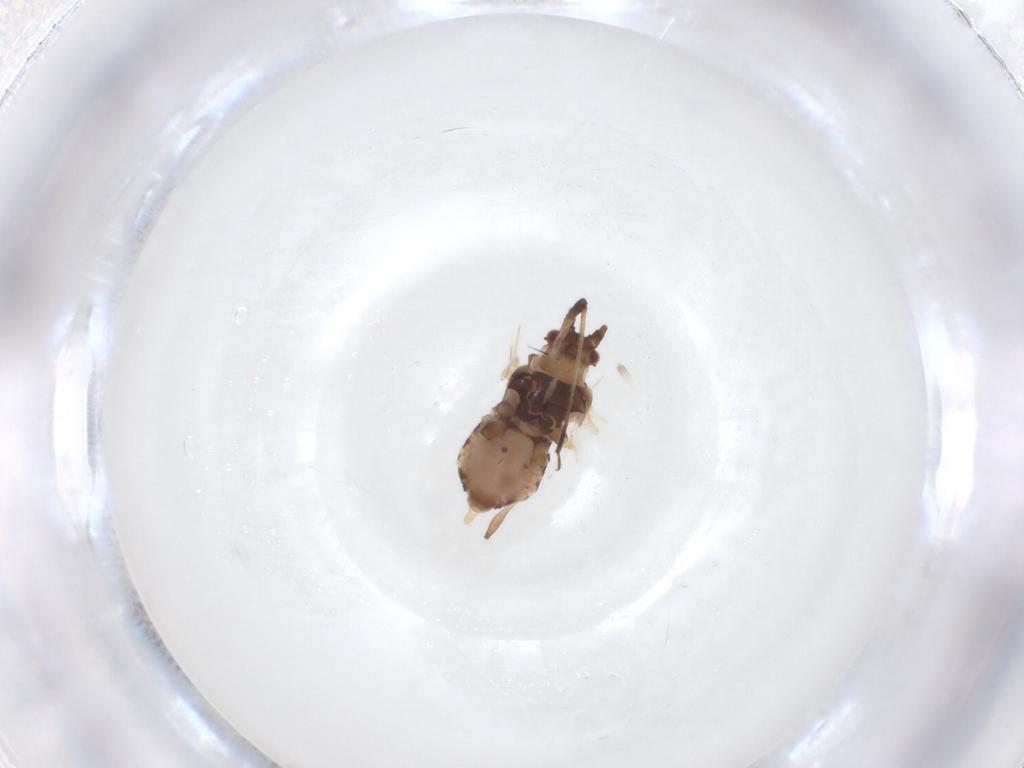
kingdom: Animalia
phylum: Arthropoda
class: Insecta
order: Hemiptera
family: Aphididae
